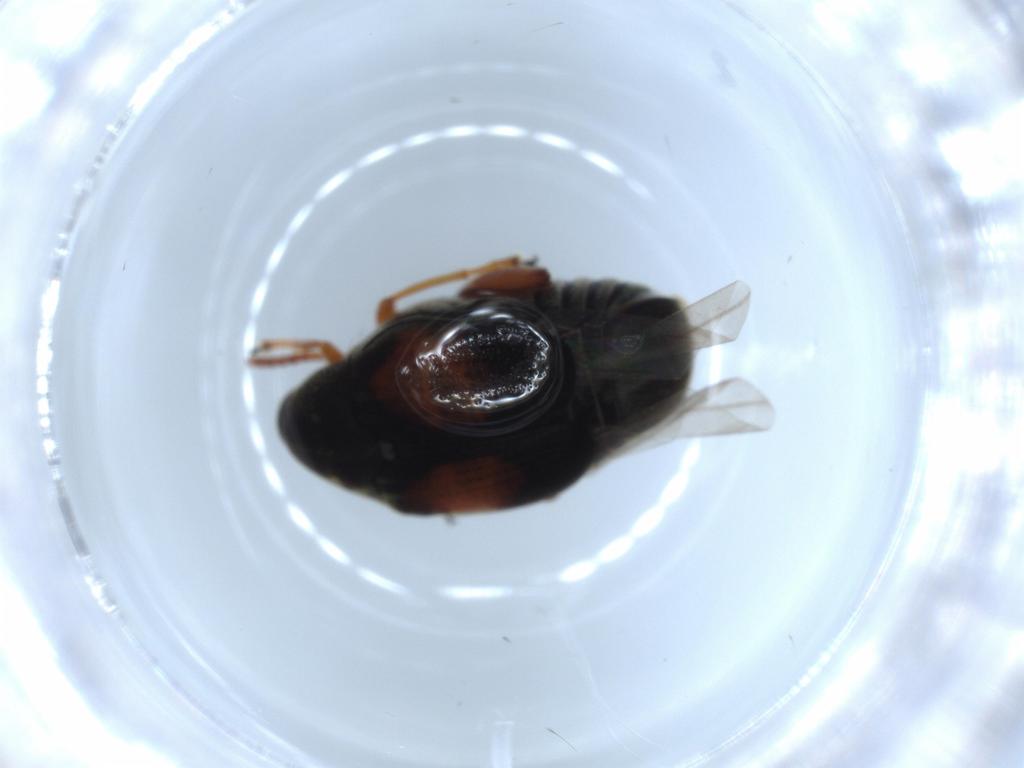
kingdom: Animalia
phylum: Arthropoda
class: Insecta
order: Coleoptera
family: Chrysomelidae
